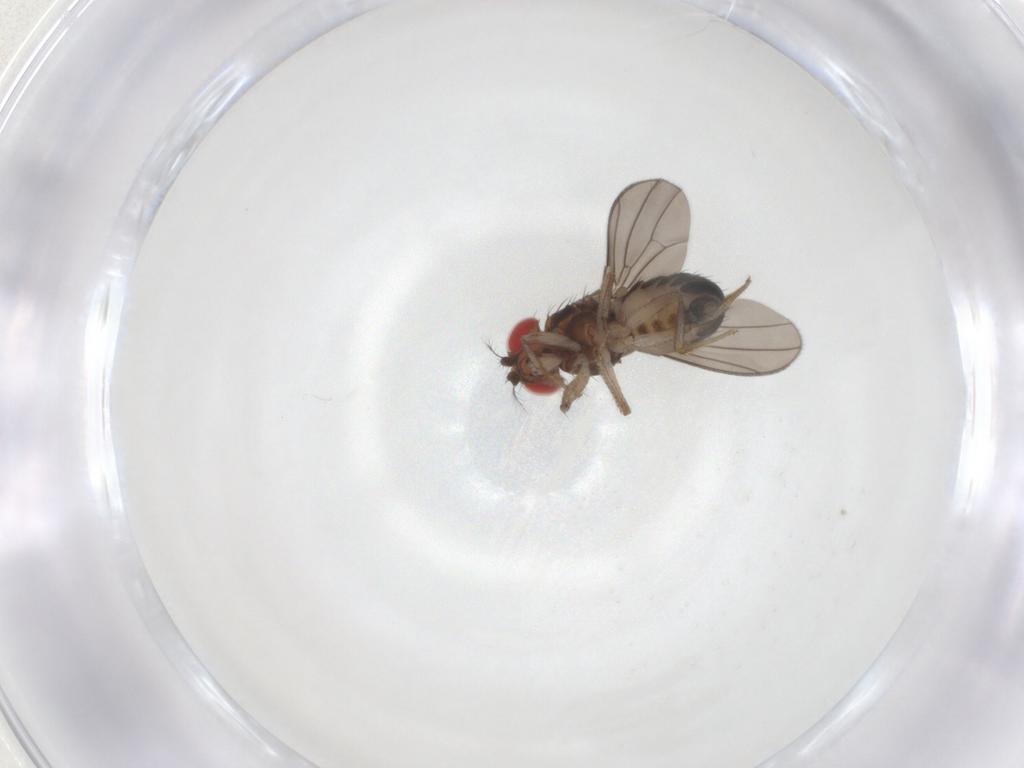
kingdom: Animalia
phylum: Arthropoda
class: Insecta
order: Diptera
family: Drosophilidae
